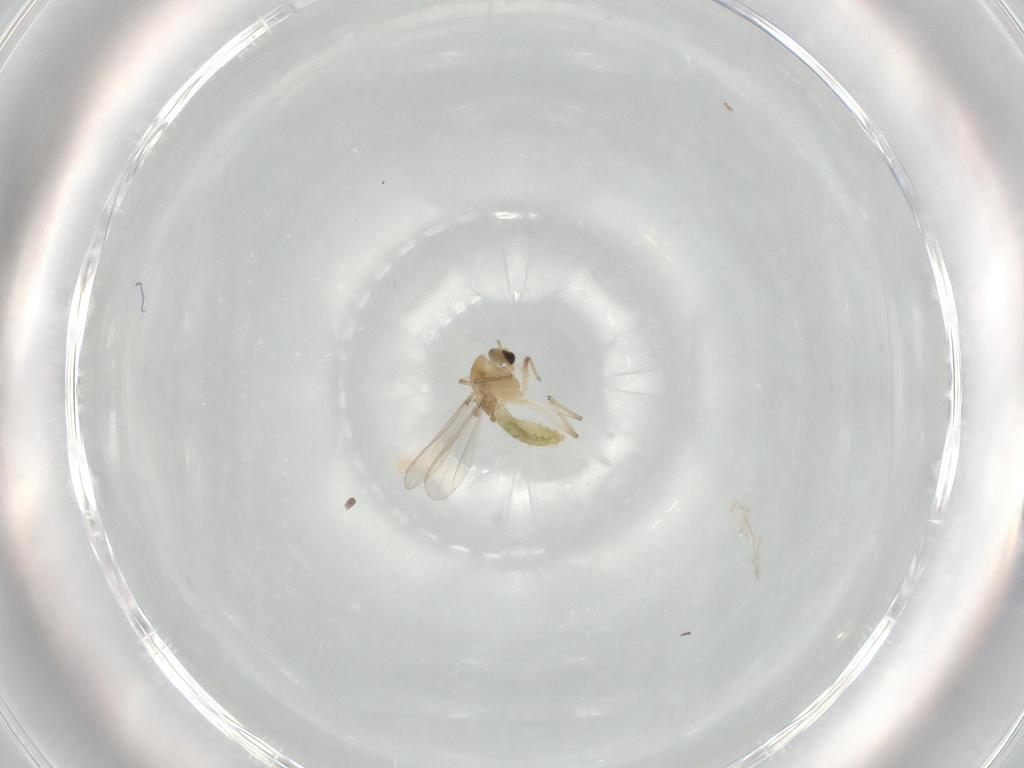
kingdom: Animalia
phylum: Arthropoda
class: Insecta
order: Diptera
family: Chironomidae
